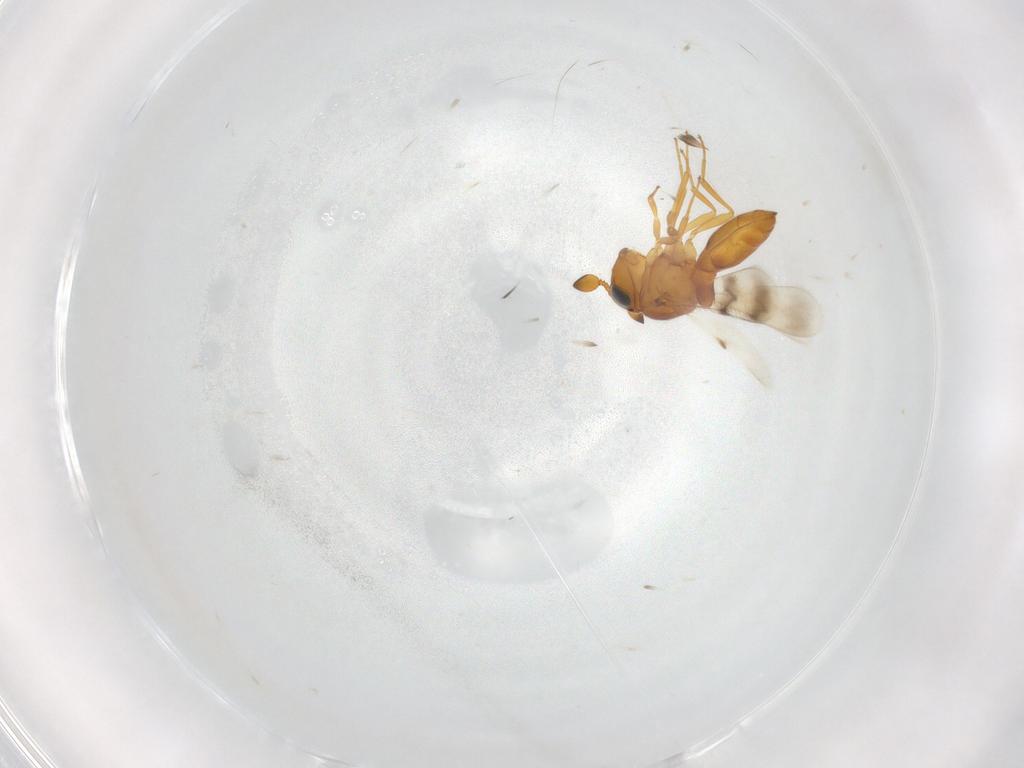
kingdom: Animalia
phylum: Arthropoda
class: Insecta
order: Hymenoptera
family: Scelionidae
